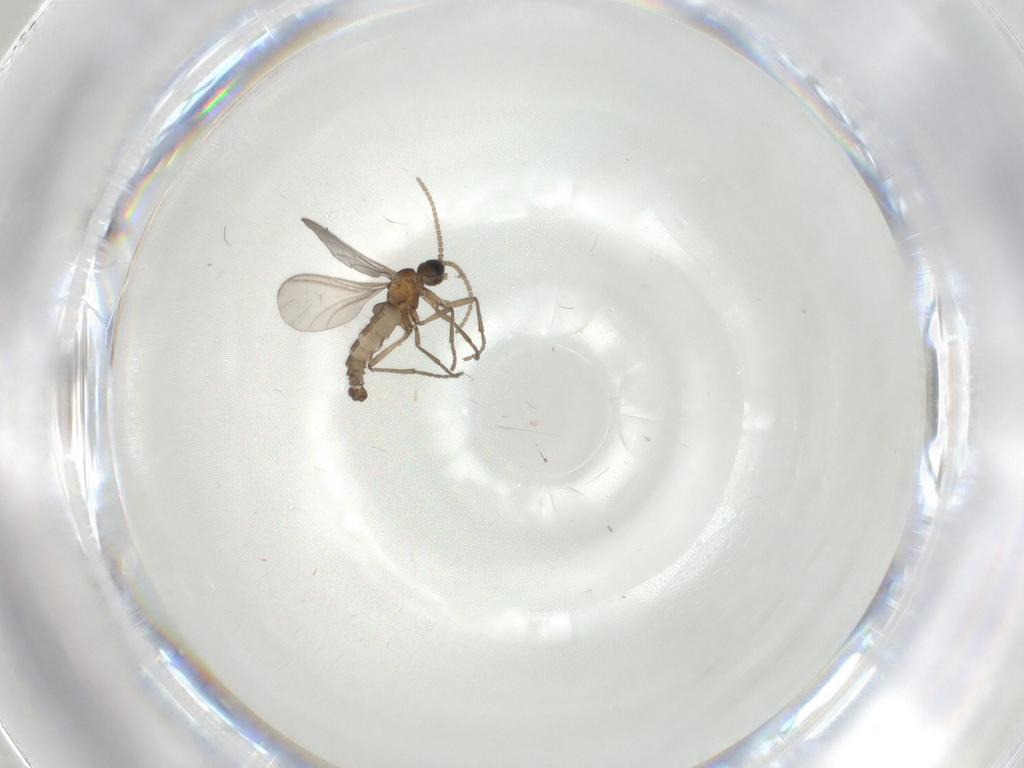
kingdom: Animalia
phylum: Arthropoda
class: Insecta
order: Diptera
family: Sciaridae
